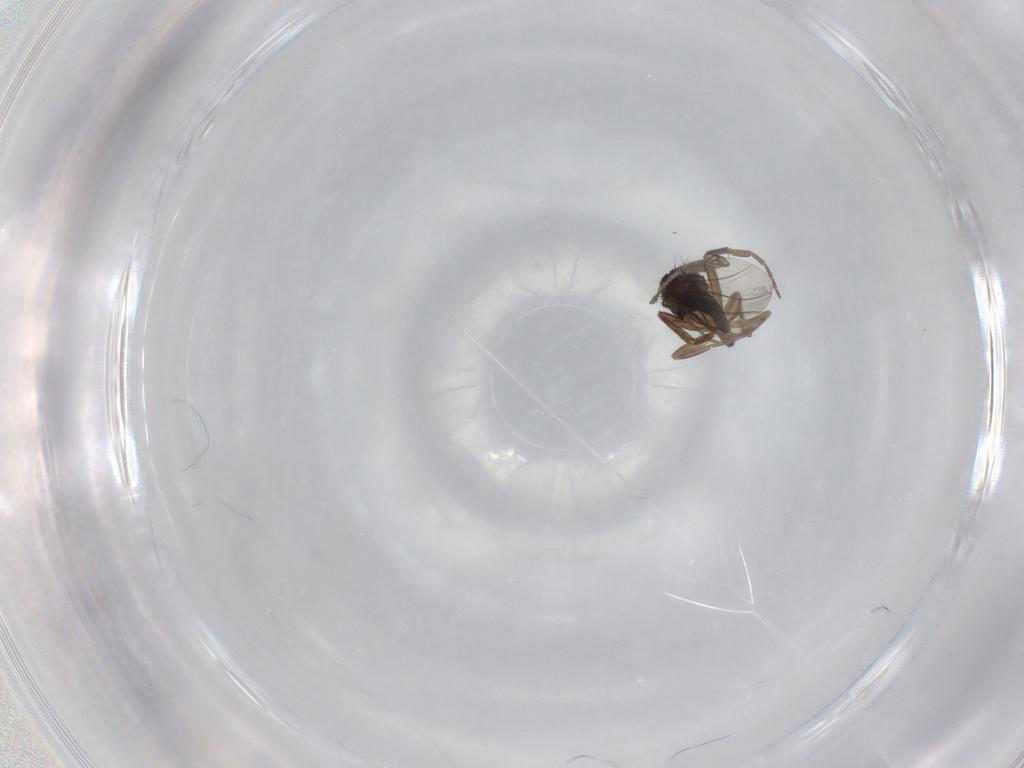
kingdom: Animalia
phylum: Arthropoda
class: Insecta
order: Diptera
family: Phoridae
